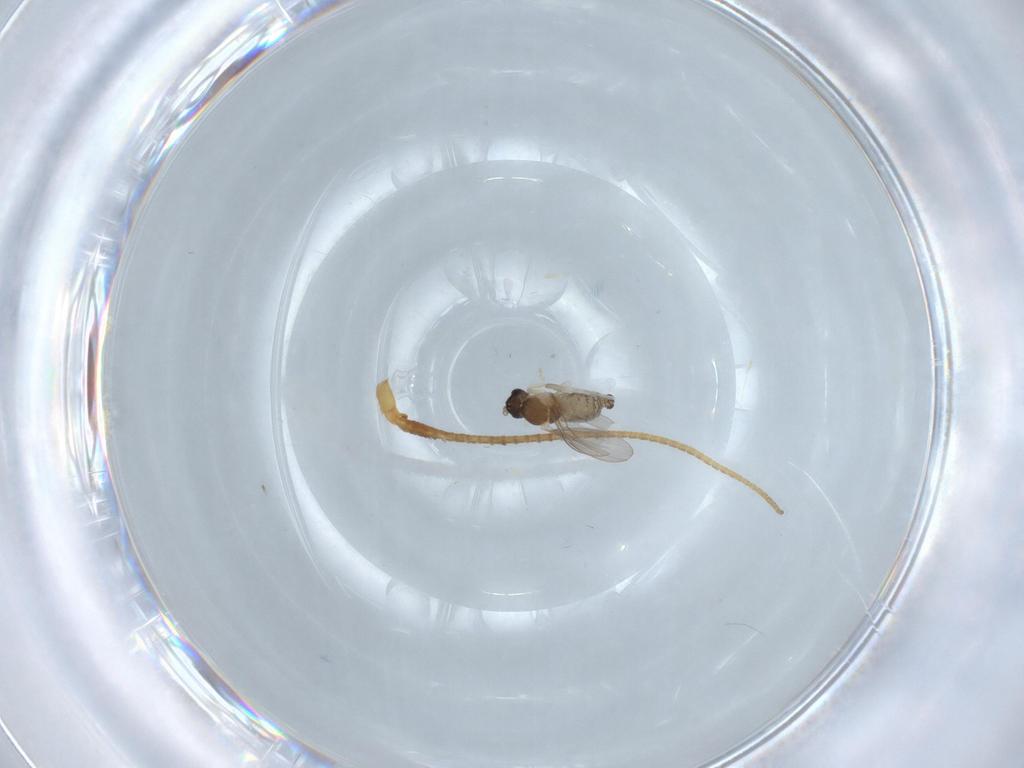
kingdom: Animalia
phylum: Arthropoda
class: Insecta
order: Diptera
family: Cecidomyiidae
